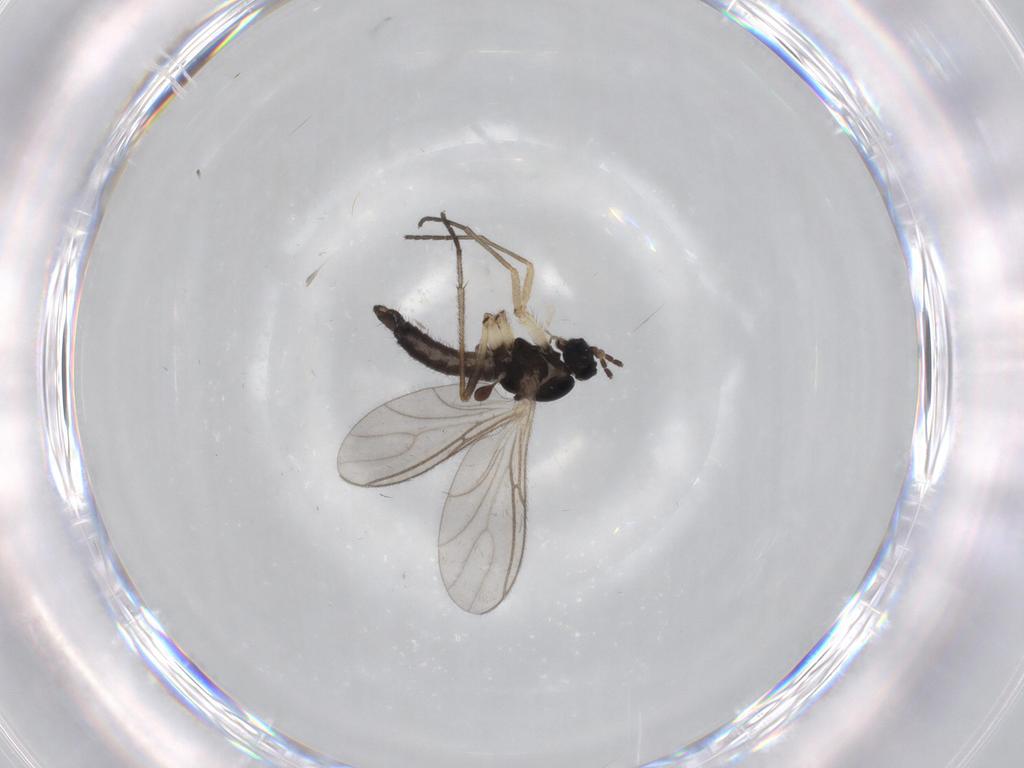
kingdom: Animalia
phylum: Arthropoda
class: Insecta
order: Diptera
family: Sciaridae
